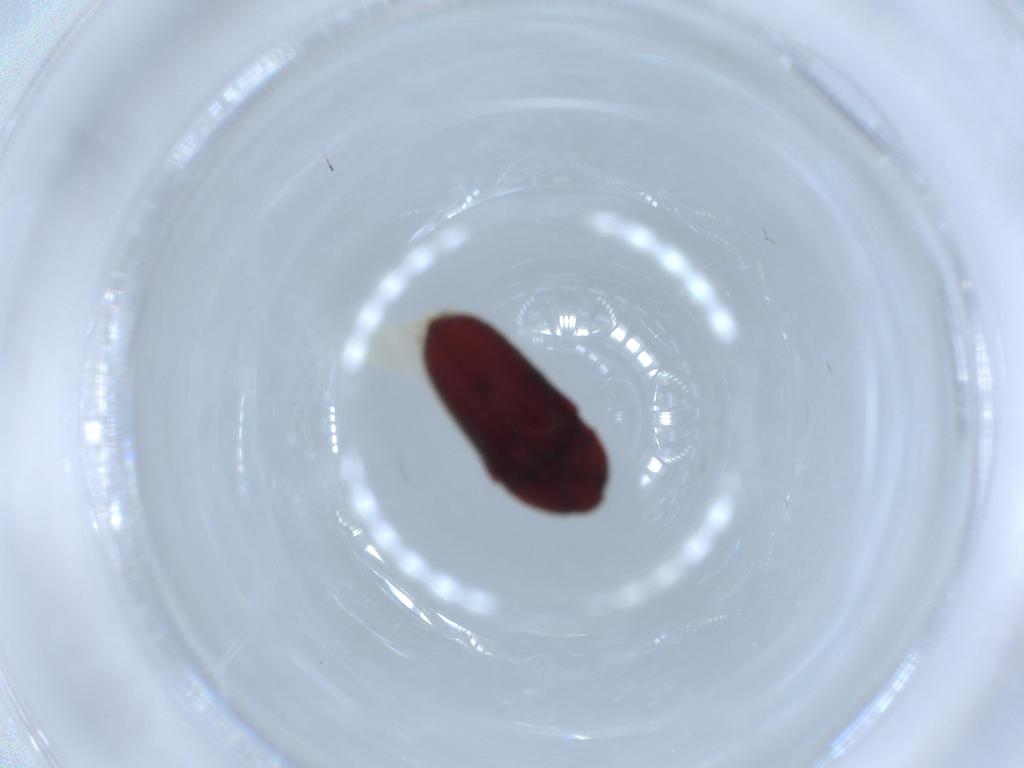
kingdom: Animalia
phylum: Arthropoda
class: Insecta
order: Coleoptera
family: Throscidae
